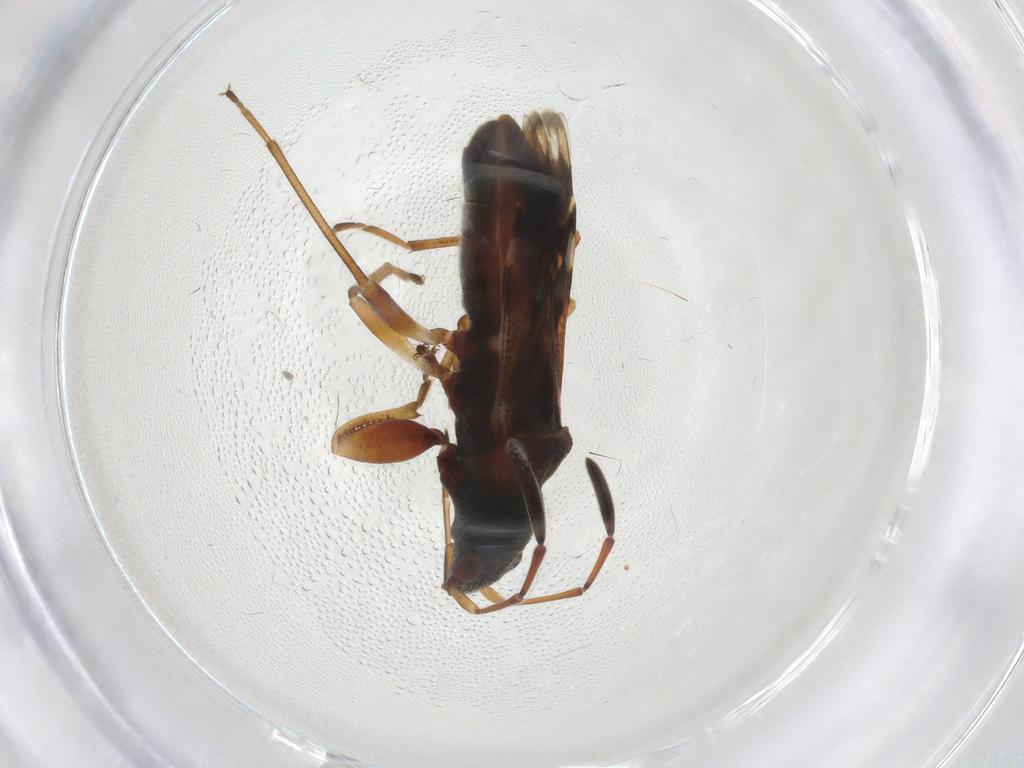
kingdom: Animalia
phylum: Arthropoda
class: Insecta
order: Hemiptera
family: Rhyparochromidae
